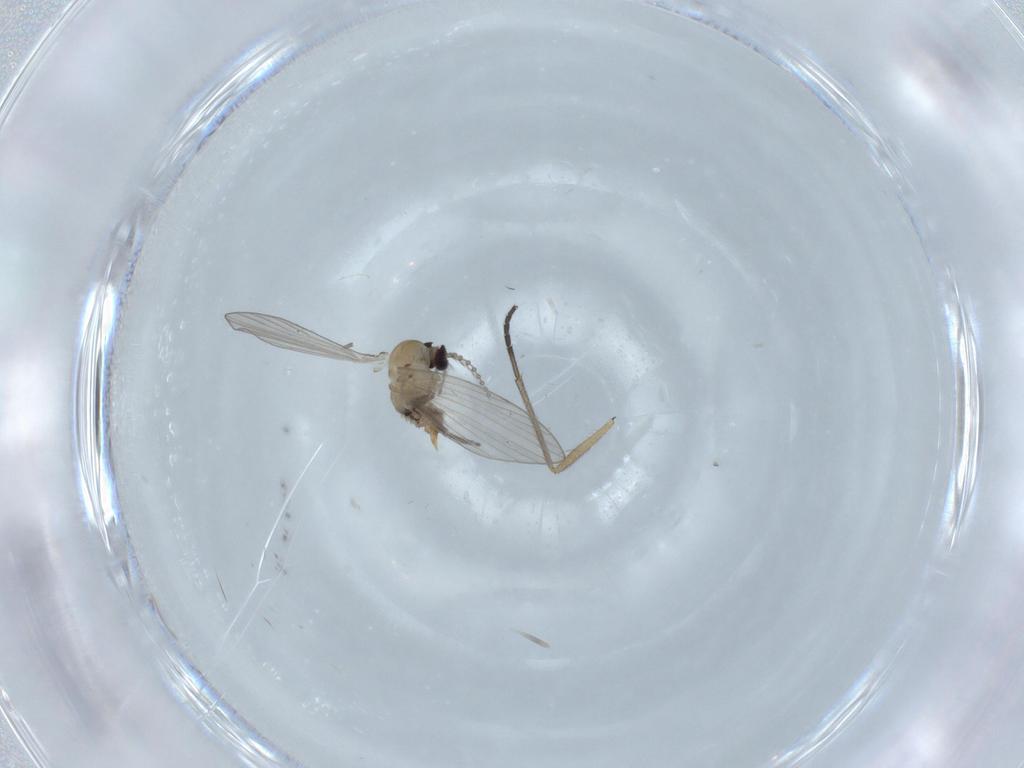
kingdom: Animalia
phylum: Arthropoda
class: Insecta
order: Diptera
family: Psychodidae
